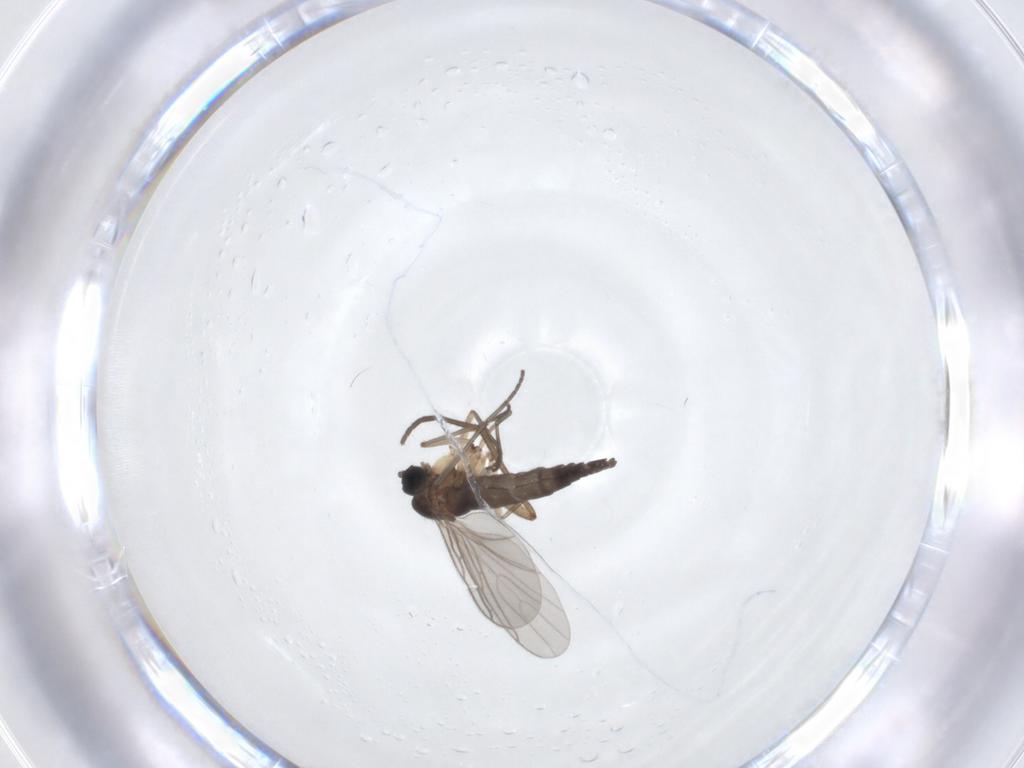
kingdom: Animalia
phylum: Arthropoda
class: Insecta
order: Diptera
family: Sciaridae
